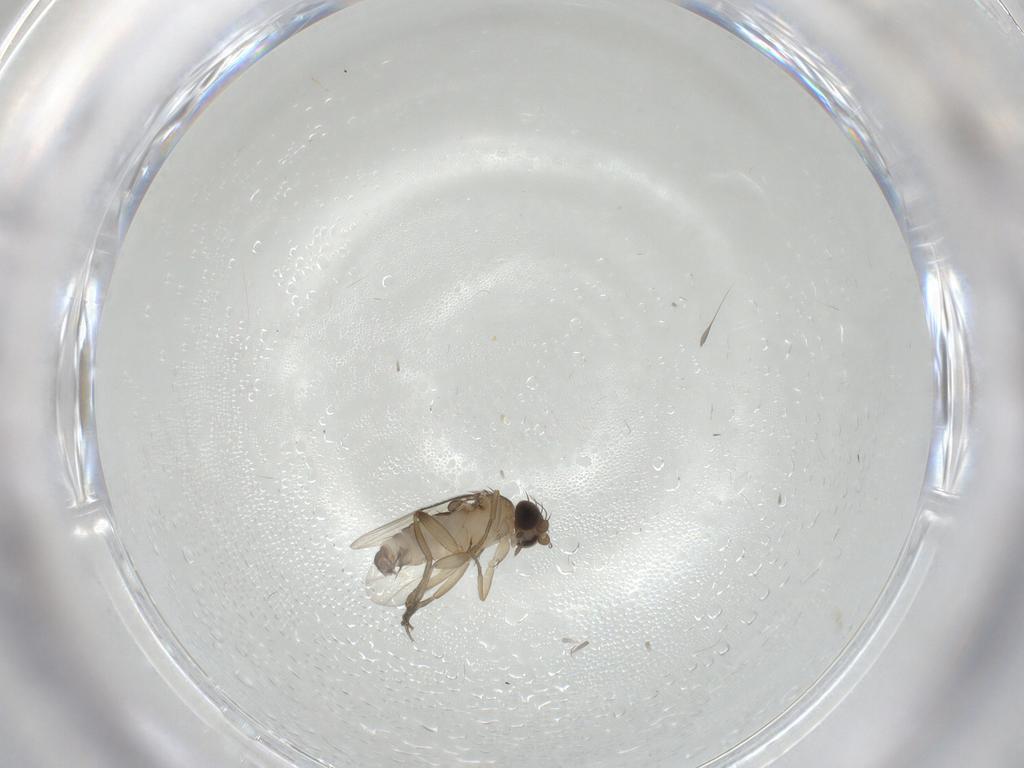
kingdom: Animalia
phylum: Arthropoda
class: Insecta
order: Diptera
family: Phoridae
